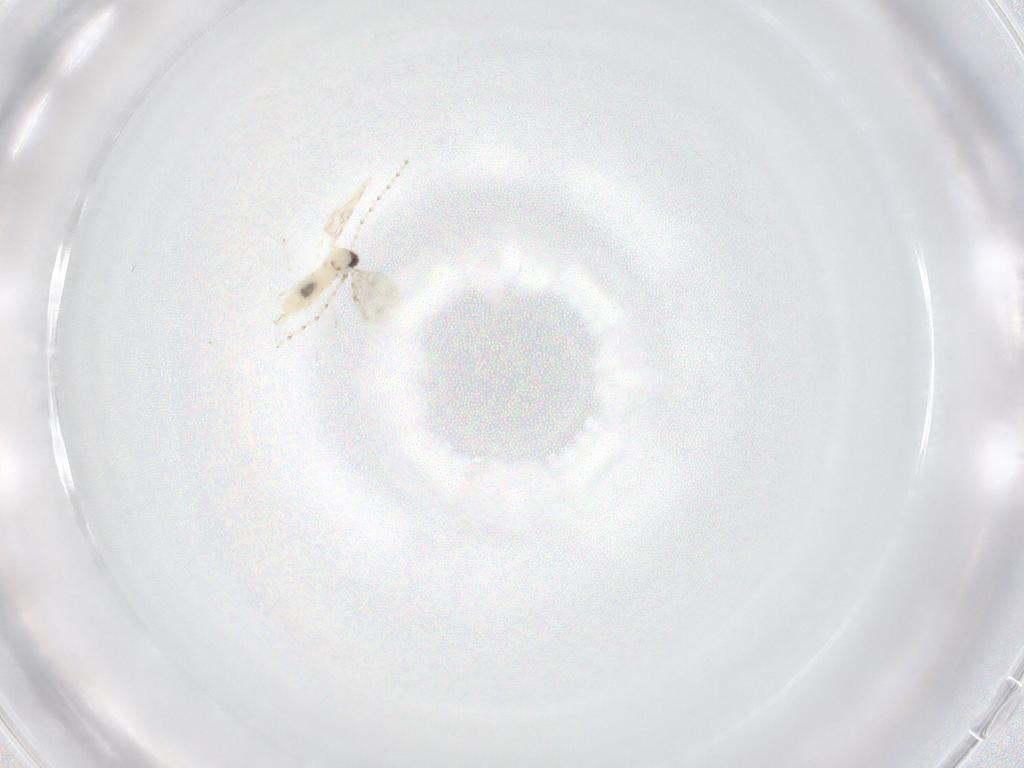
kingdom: Animalia
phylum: Arthropoda
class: Insecta
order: Diptera
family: Cecidomyiidae
